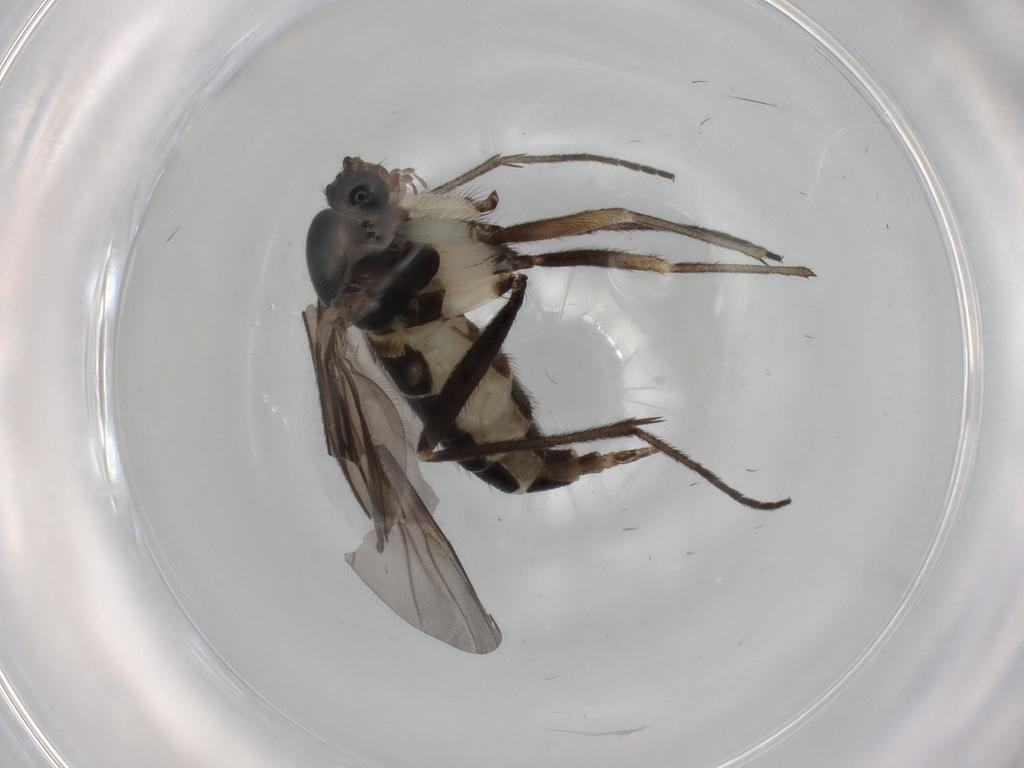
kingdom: Animalia
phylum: Arthropoda
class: Insecta
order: Diptera
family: Sciaridae
